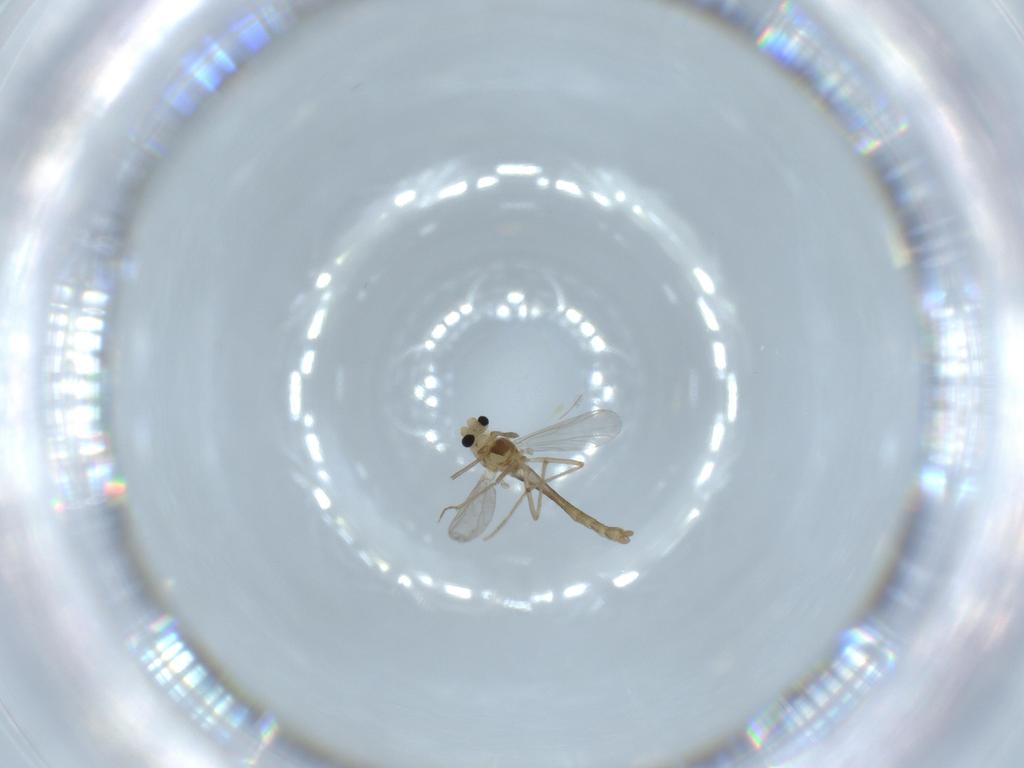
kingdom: Animalia
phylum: Arthropoda
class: Insecta
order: Diptera
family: Chironomidae
